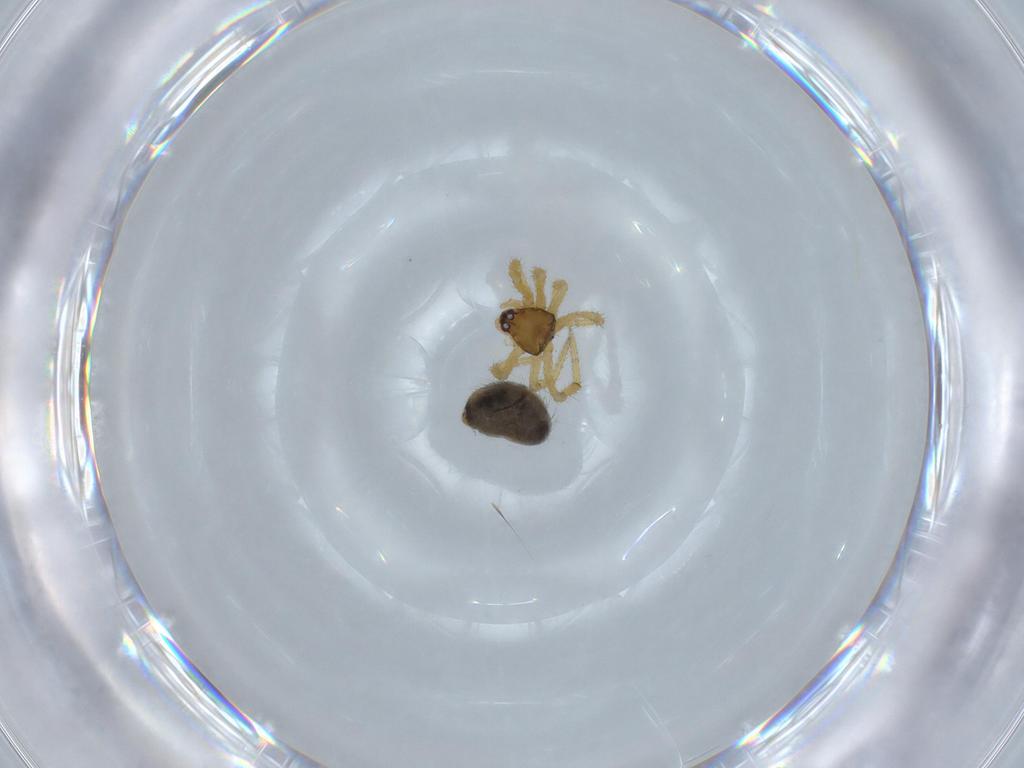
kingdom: Animalia
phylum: Arthropoda
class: Arachnida
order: Araneae
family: Theridiidae
